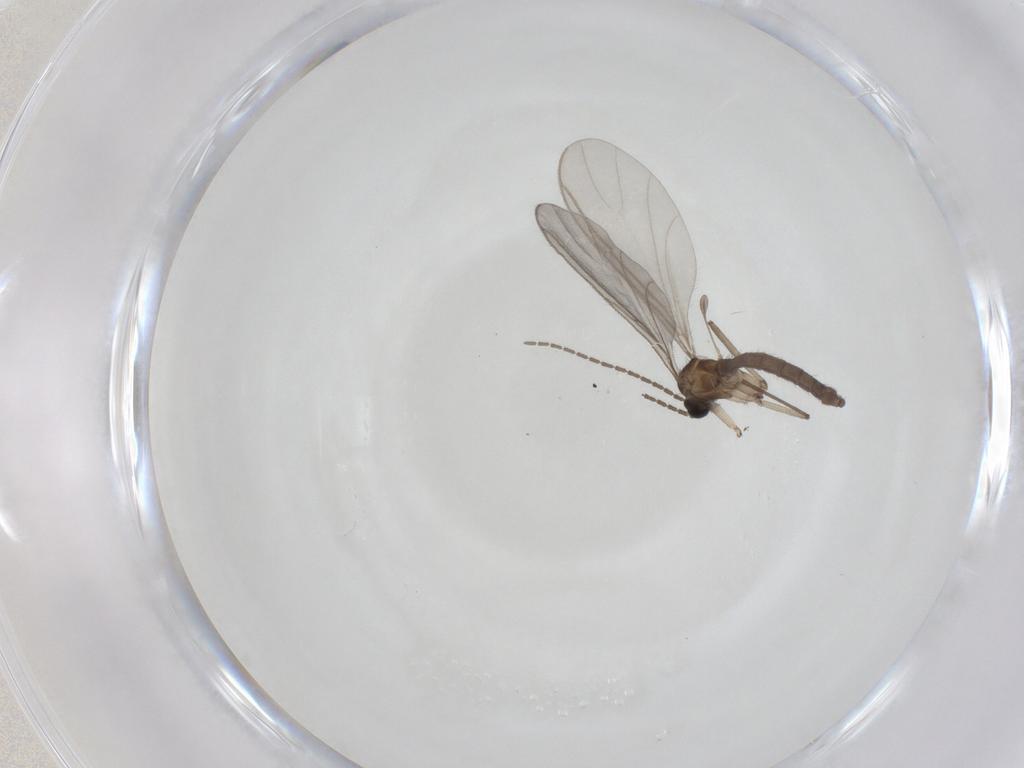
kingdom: Animalia
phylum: Arthropoda
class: Insecta
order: Diptera
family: Sciaridae
